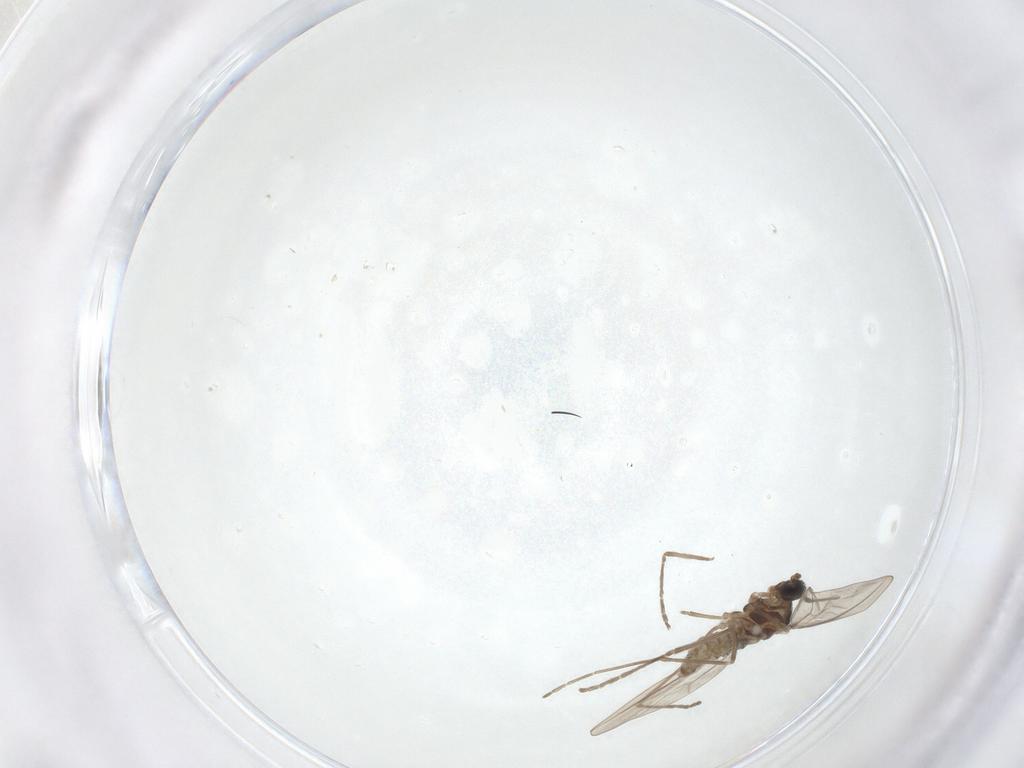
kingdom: Animalia
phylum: Arthropoda
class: Insecta
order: Diptera
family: Cecidomyiidae
